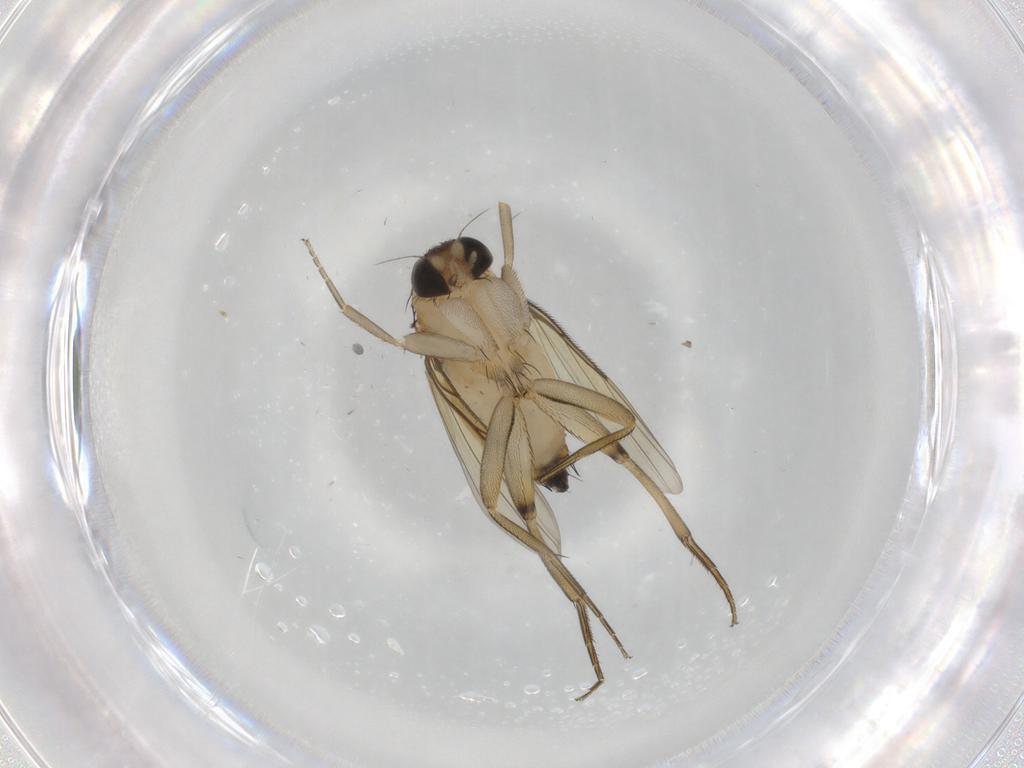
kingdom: Animalia
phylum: Arthropoda
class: Insecta
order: Diptera
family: Phoridae
